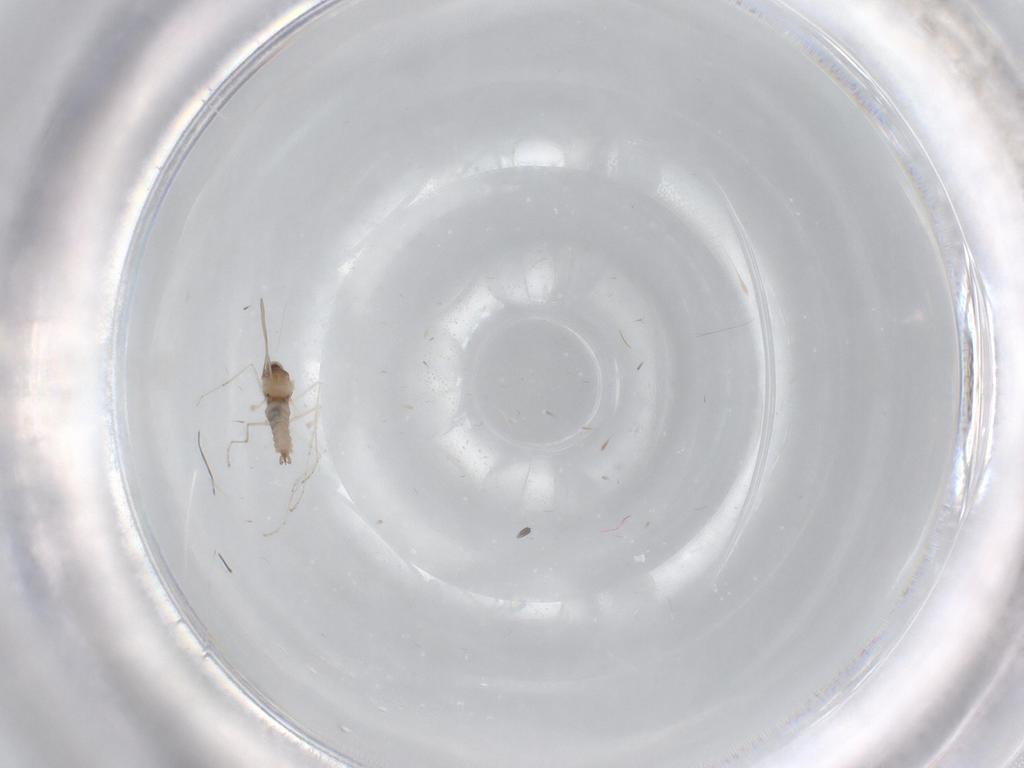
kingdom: Animalia
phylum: Arthropoda
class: Insecta
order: Diptera
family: Cecidomyiidae
